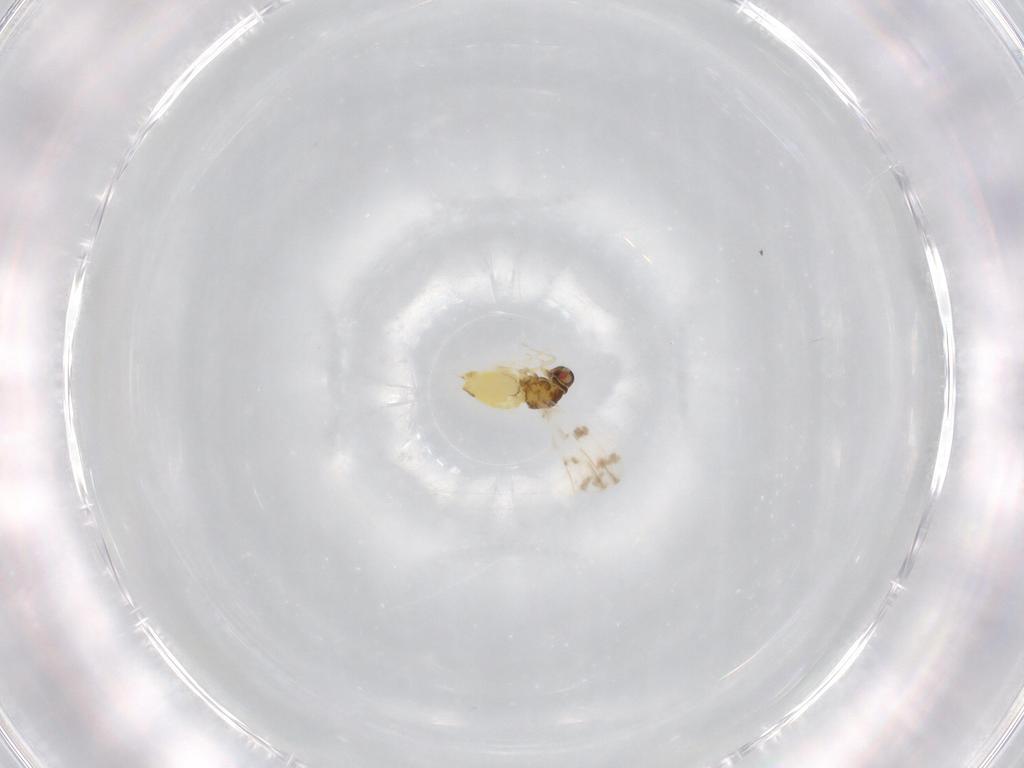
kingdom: Animalia
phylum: Arthropoda
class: Insecta
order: Hemiptera
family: Aleyrodidae
